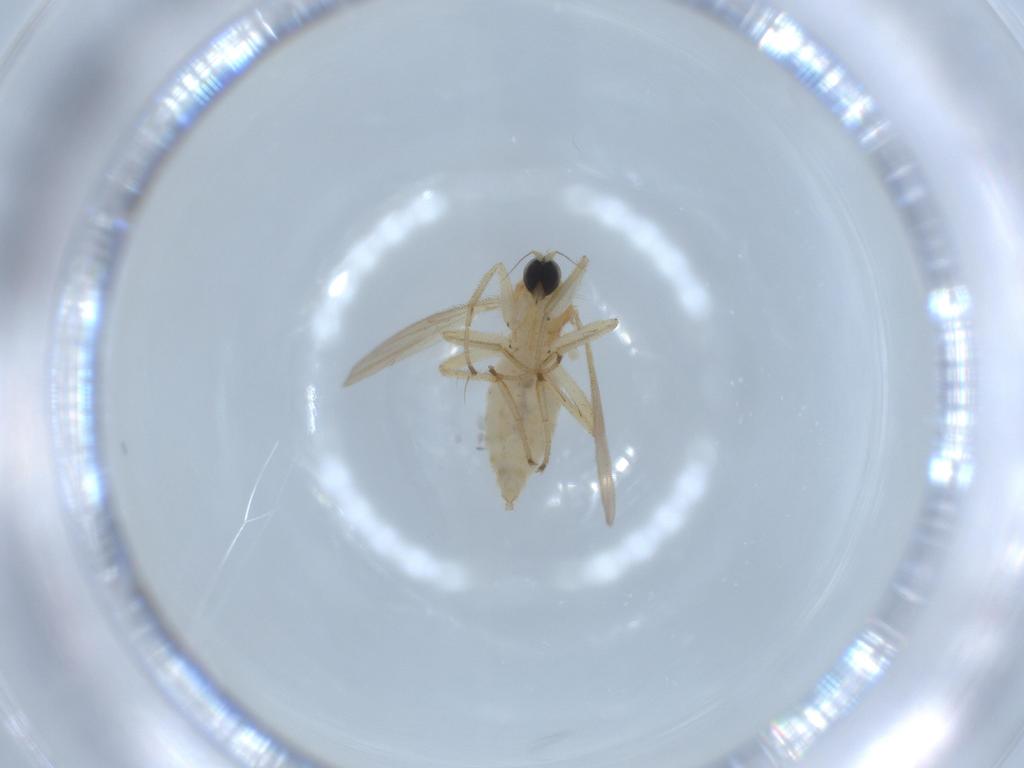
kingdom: Animalia
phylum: Arthropoda
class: Insecta
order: Diptera
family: Hybotidae
